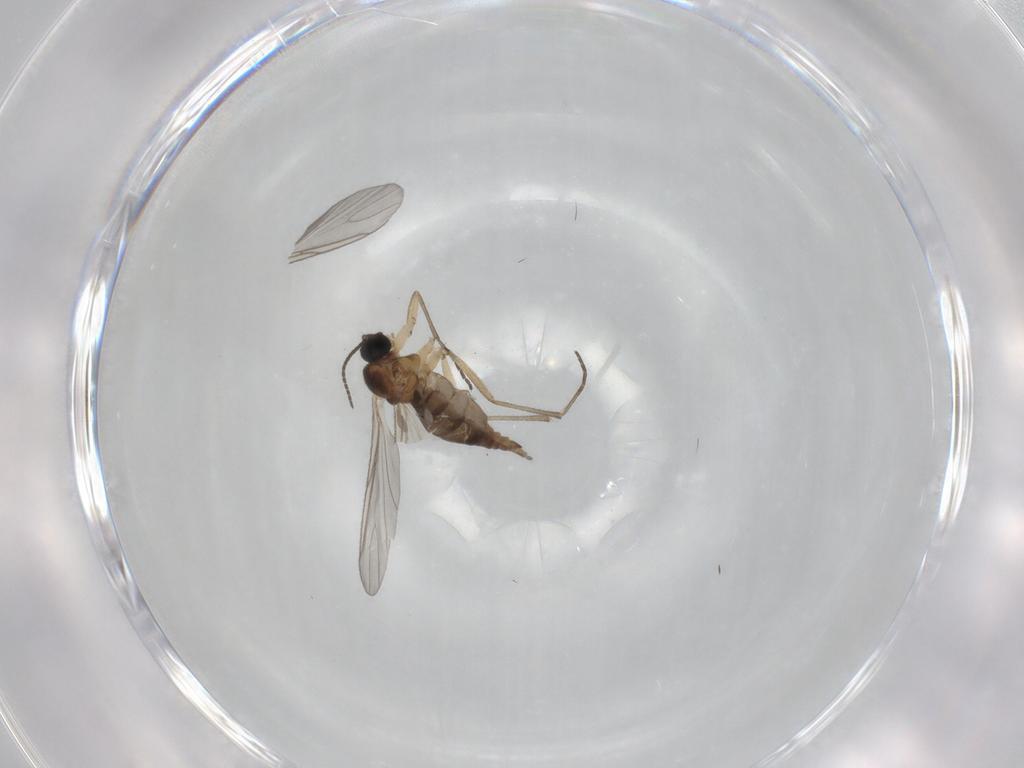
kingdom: Animalia
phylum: Arthropoda
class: Insecta
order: Diptera
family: Sciaridae
